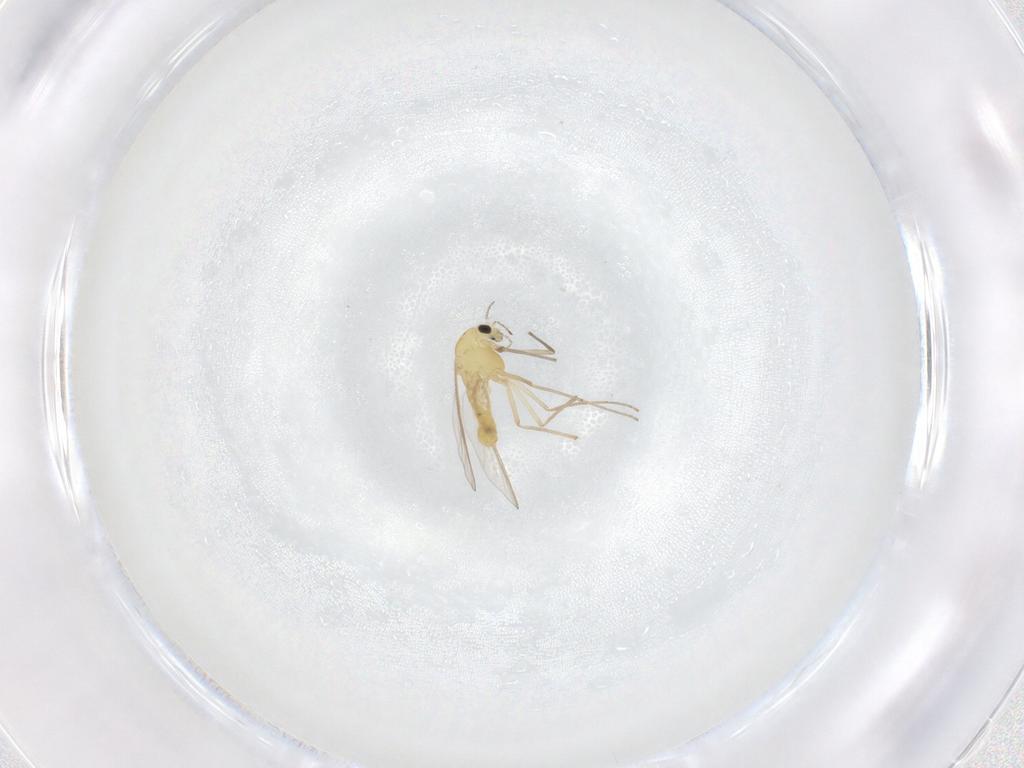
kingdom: Animalia
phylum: Arthropoda
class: Insecta
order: Diptera
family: Chironomidae
